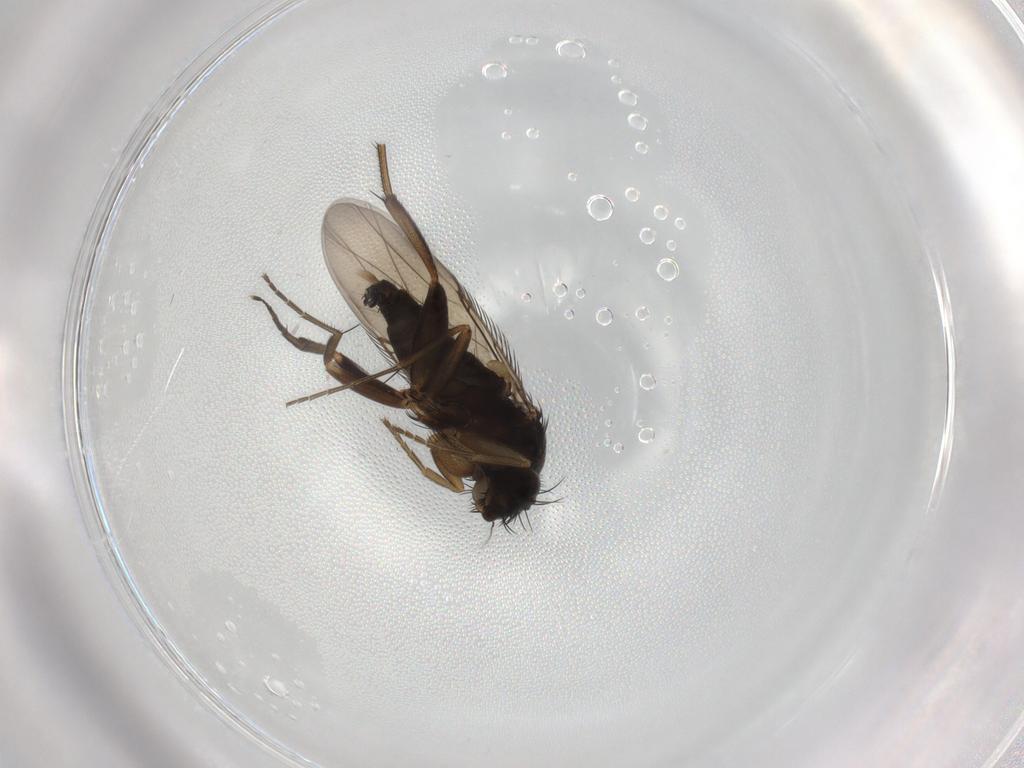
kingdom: Animalia
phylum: Arthropoda
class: Insecta
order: Diptera
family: Phoridae
